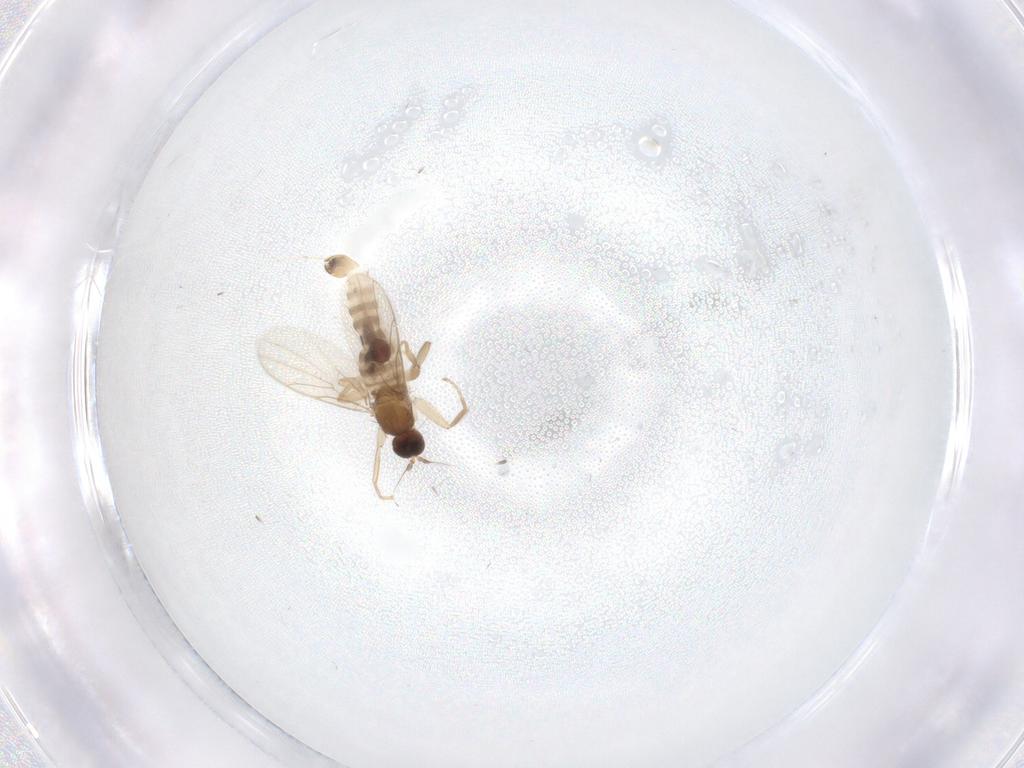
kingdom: Animalia
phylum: Arthropoda
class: Insecta
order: Diptera
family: Hybotidae
